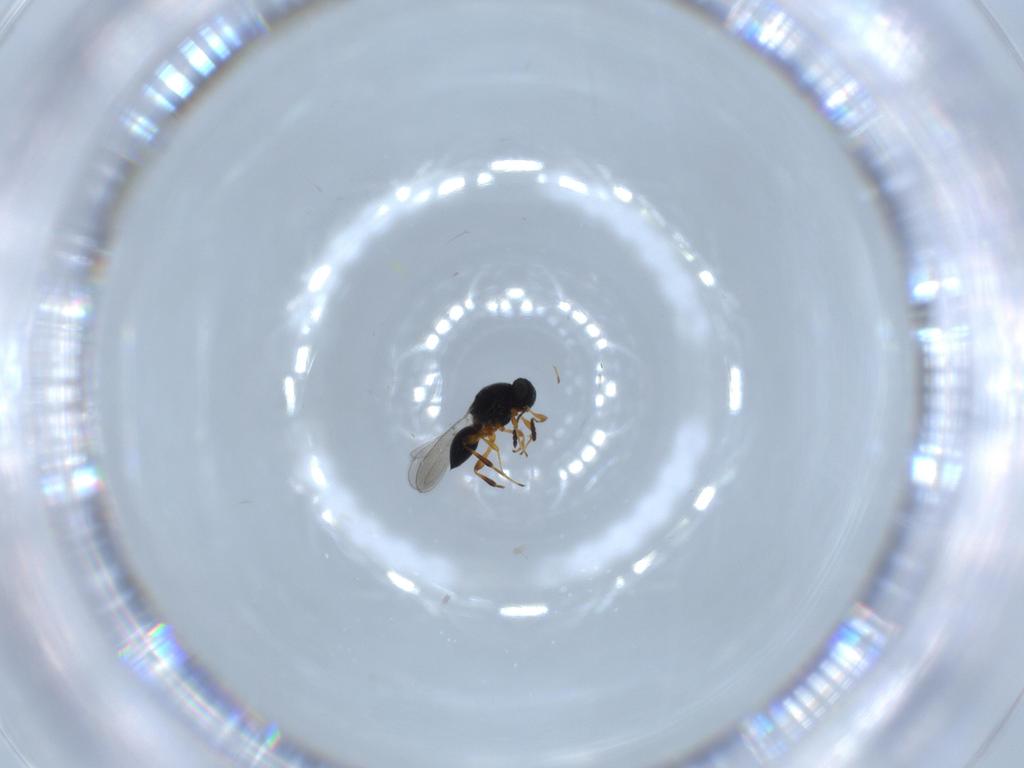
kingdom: Animalia
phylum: Arthropoda
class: Insecta
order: Hymenoptera
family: Platygastridae
